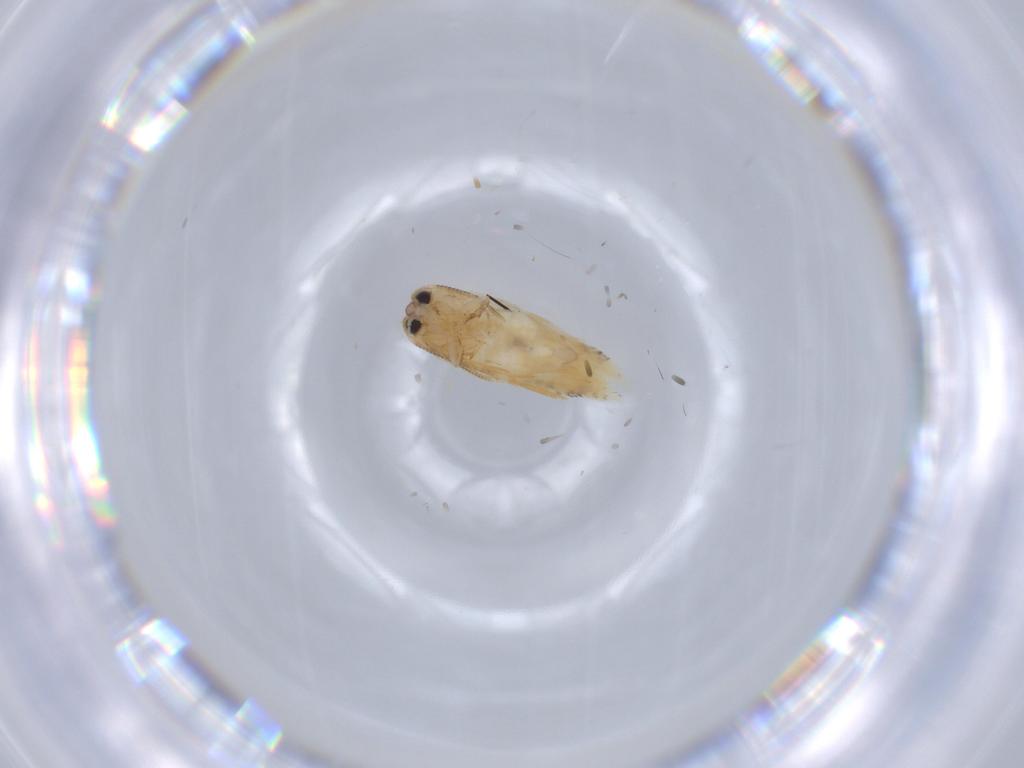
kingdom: Animalia
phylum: Arthropoda
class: Insecta
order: Lepidoptera
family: Nepticulidae
